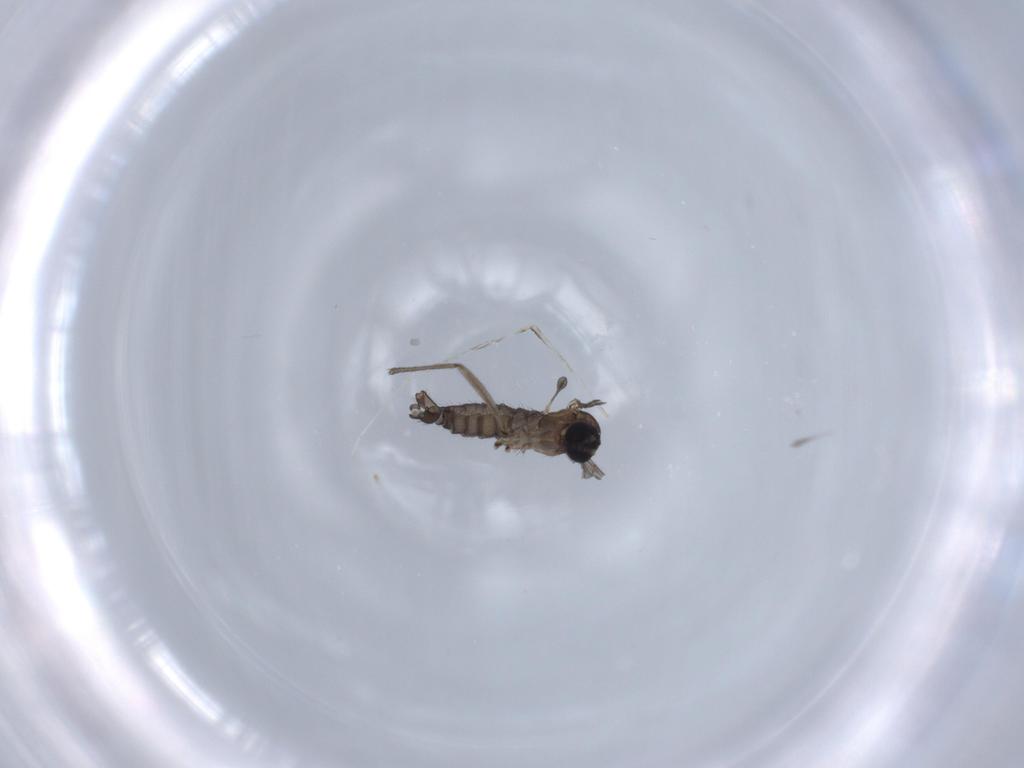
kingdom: Animalia
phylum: Arthropoda
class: Insecta
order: Diptera
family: Sciaridae
